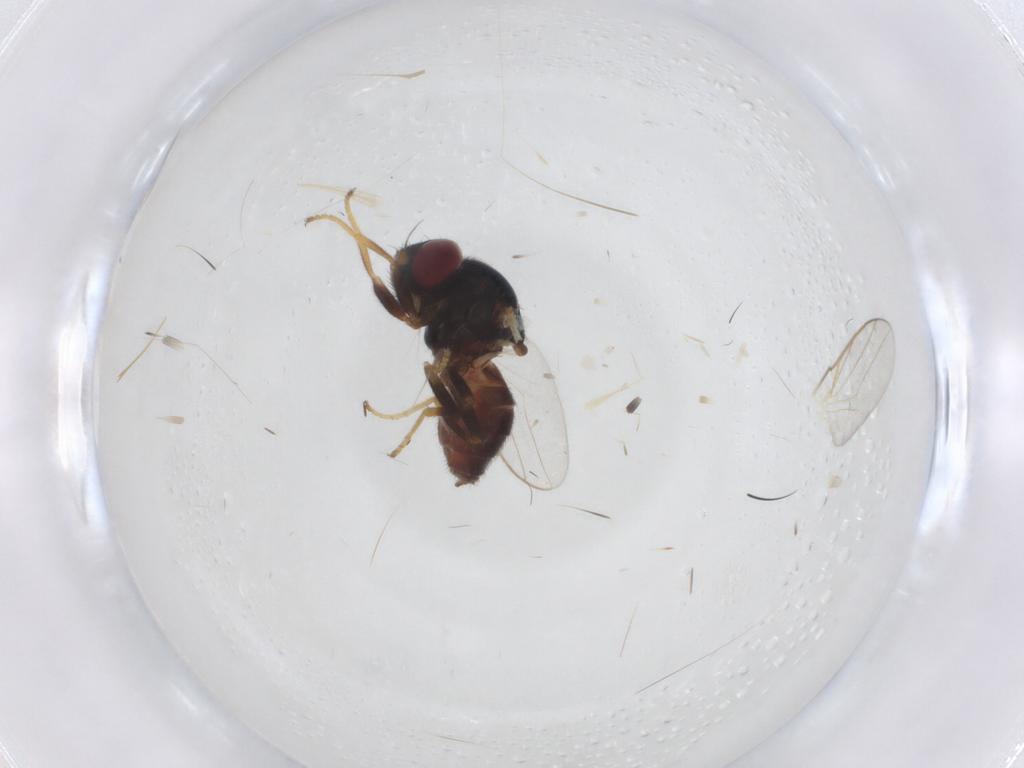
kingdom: Animalia
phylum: Arthropoda
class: Insecta
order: Diptera
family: Chloropidae
